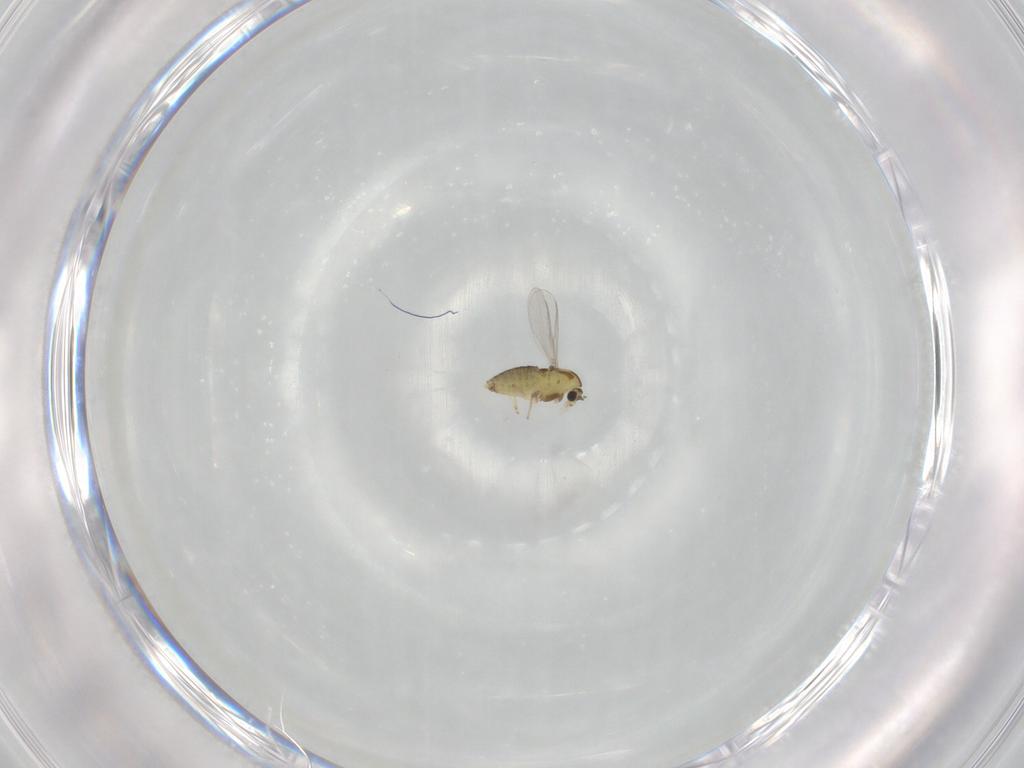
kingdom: Animalia
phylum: Arthropoda
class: Insecta
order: Diptera
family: Chironomidae
